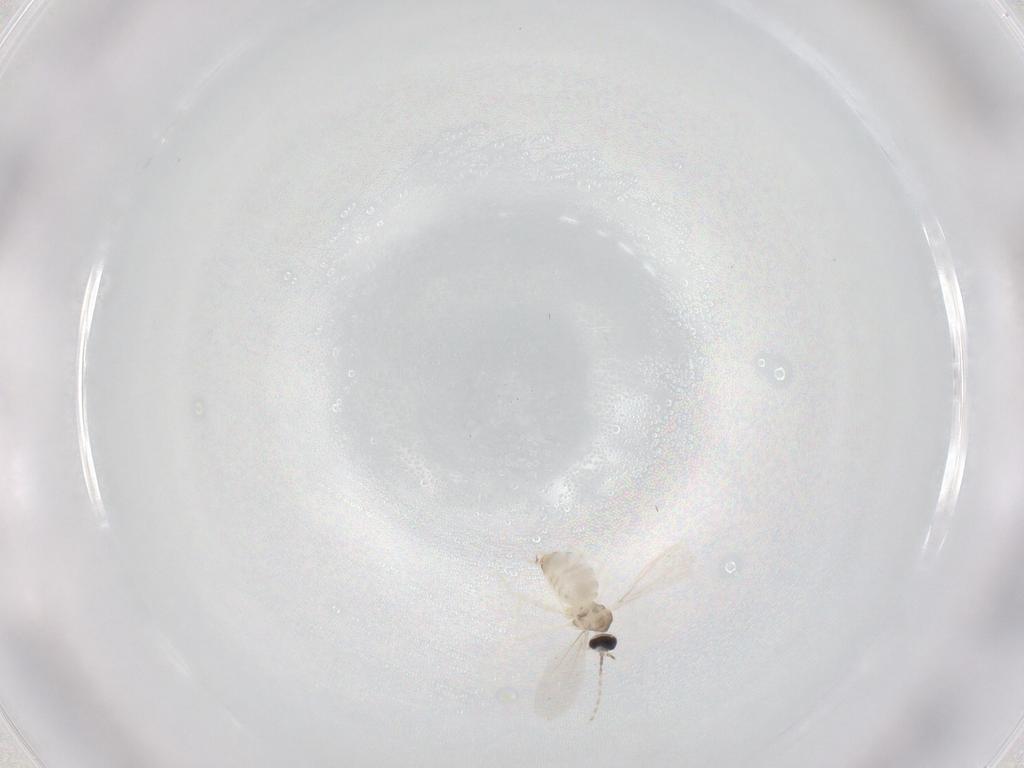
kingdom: Animalia
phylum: Arthropoda
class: Insecta
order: Diptera
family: Cecidomyiidae
